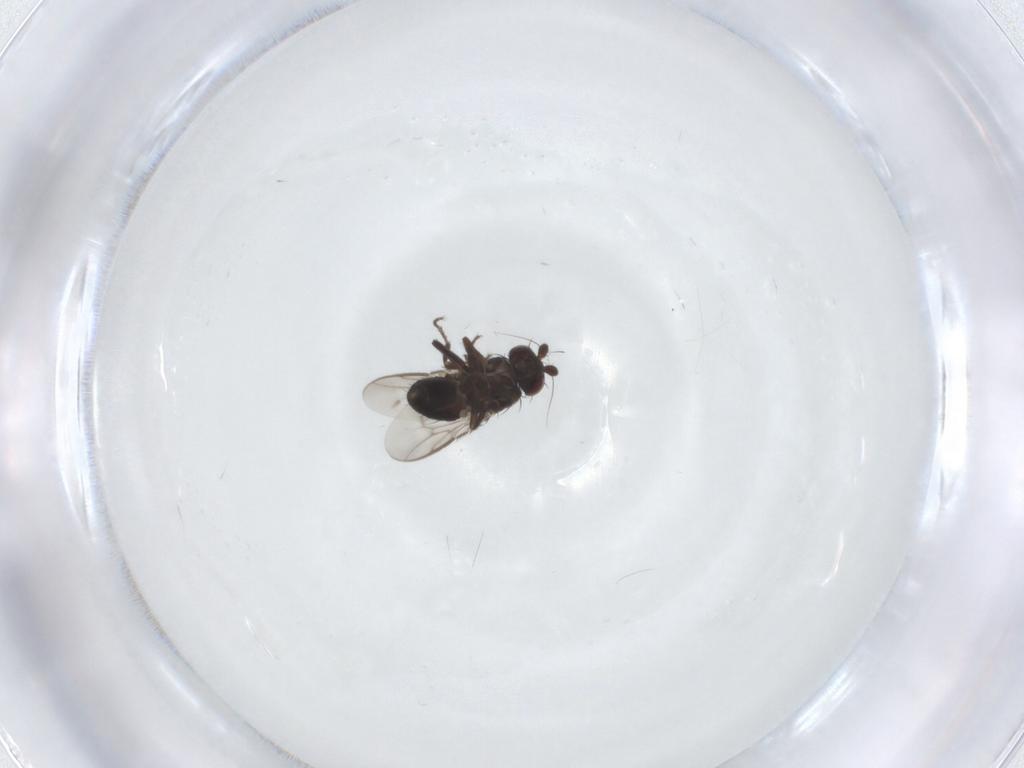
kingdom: Animalia
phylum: Arthropoda
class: Insecta
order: Diptera
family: Sphaeroceridae
